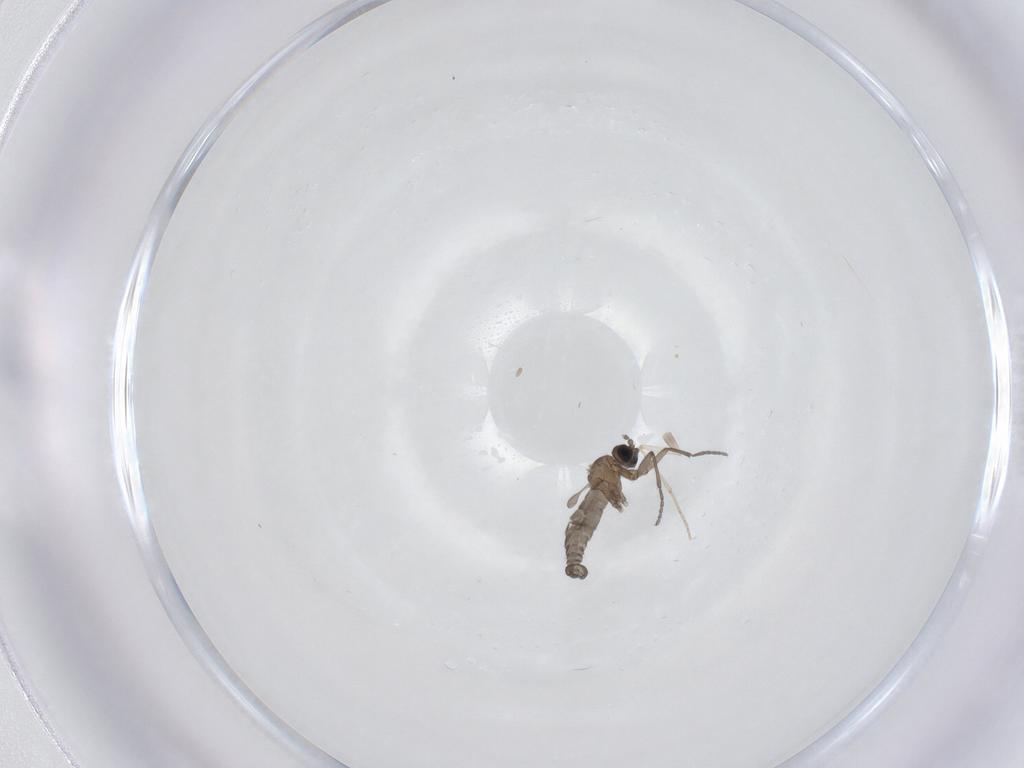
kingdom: Animalia
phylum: Arthropoda
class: Insecta
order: Diptera
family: Sciaridae
